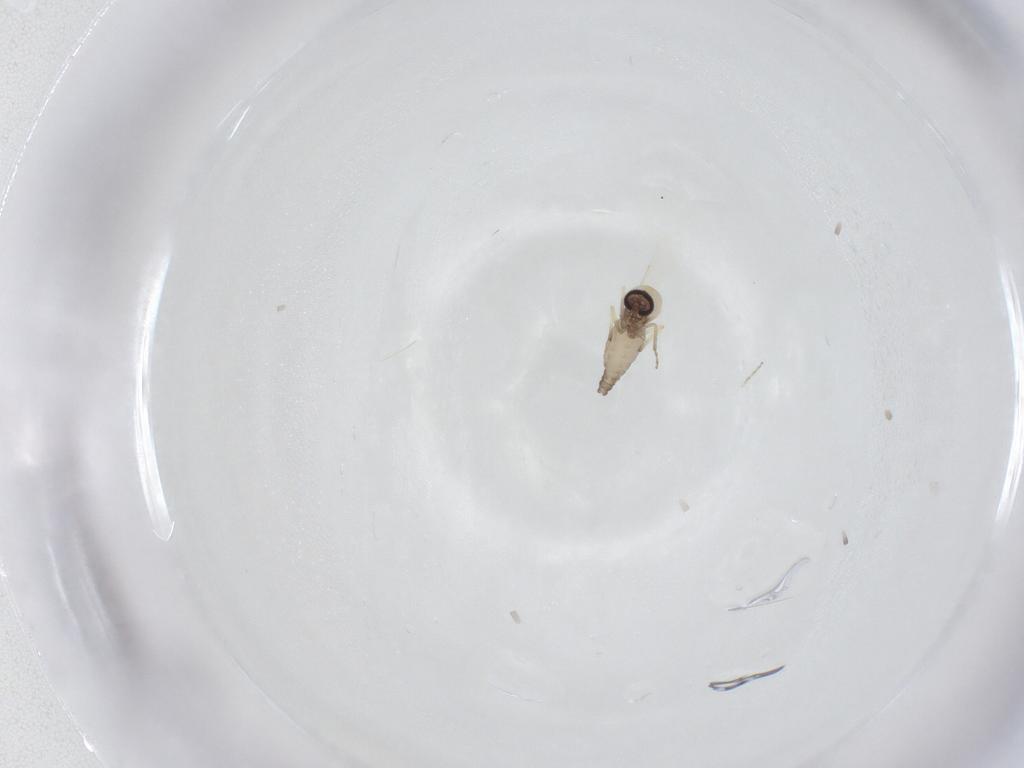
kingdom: Animalia
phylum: Arthropoda
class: Insecta
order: Diptera
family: Ceratopogonidae
